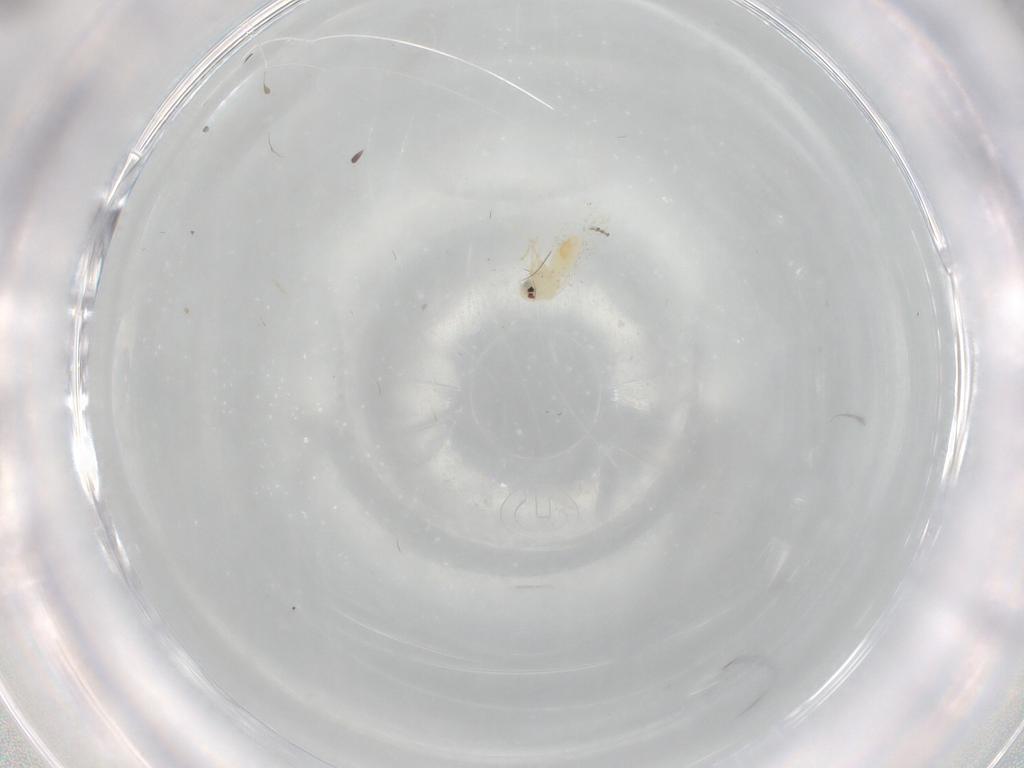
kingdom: Animalia
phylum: Arthropoda
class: Insecta
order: Hemiptera
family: Aleyrodidae
